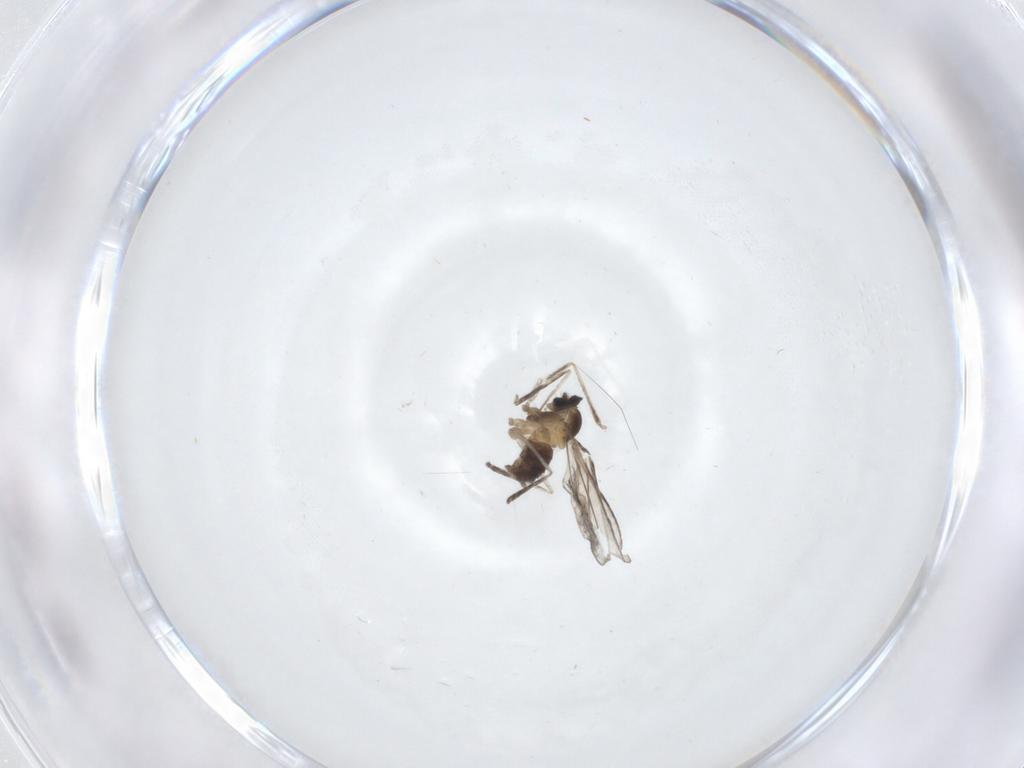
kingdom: Animalia
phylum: Arthropoda
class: Insecta
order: Diptera
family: Cecidomyiidae
